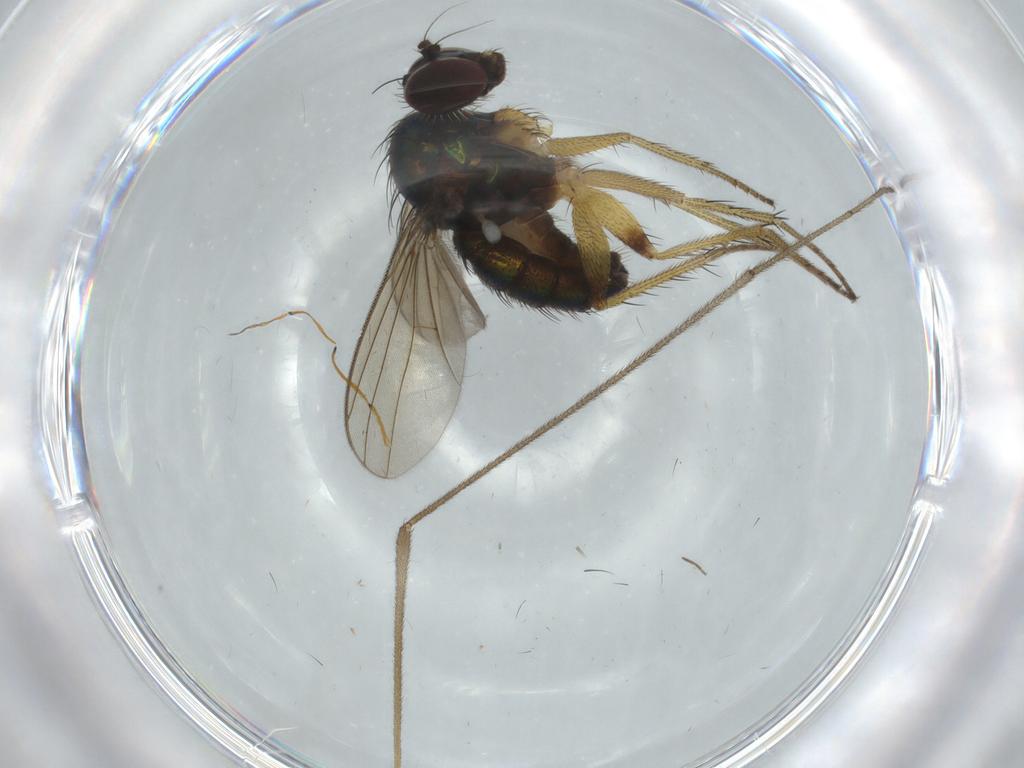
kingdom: Animalia
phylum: Arthropoda
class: Insecta
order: Diptera
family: Dolichopodidae
